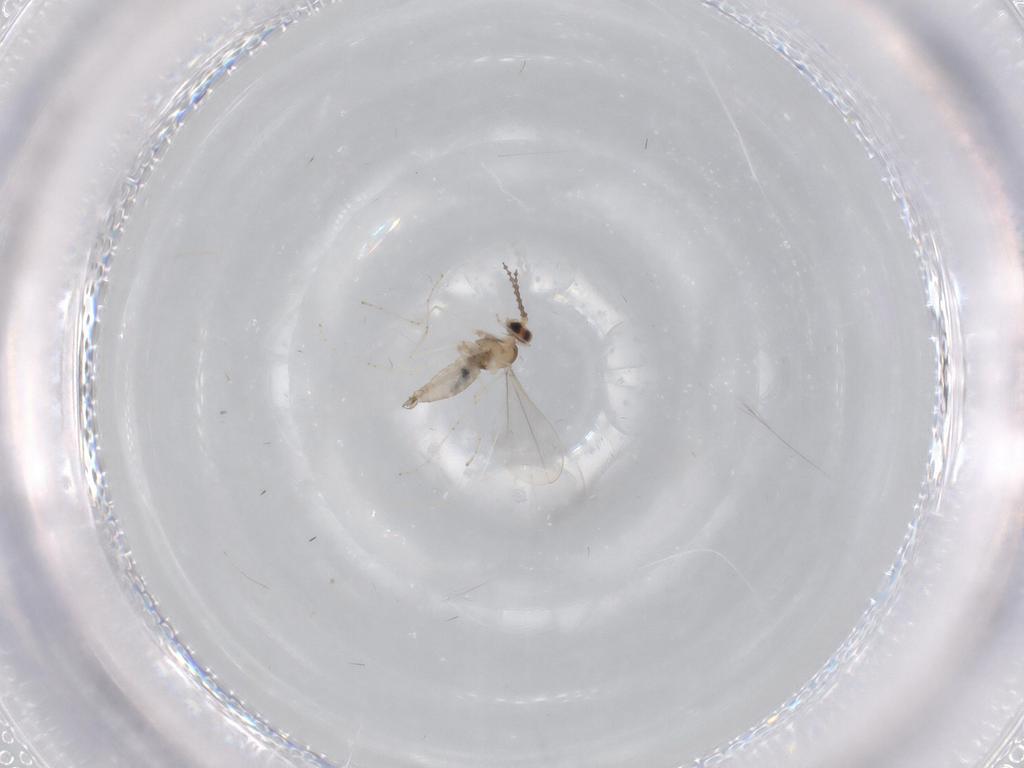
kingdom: Animalia
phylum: Arthropoda
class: Insecta
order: Diptera
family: Cecidomyiidae
